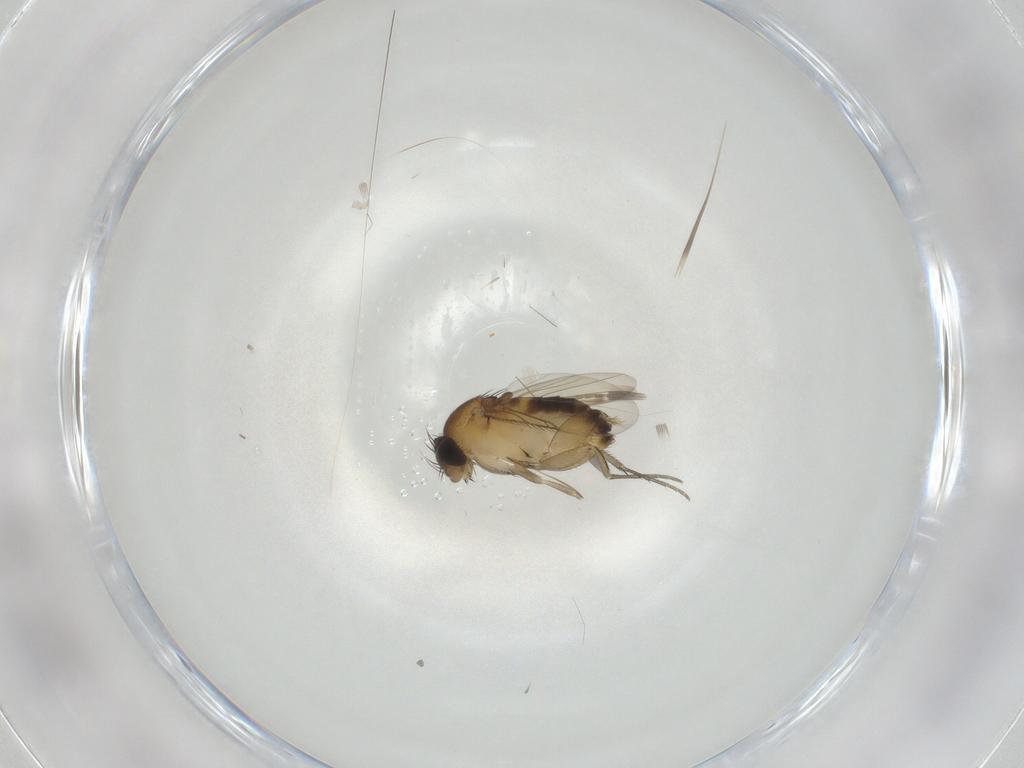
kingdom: Animalia
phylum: Arthropoda
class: Insecta
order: Diptera
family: Phoridae
